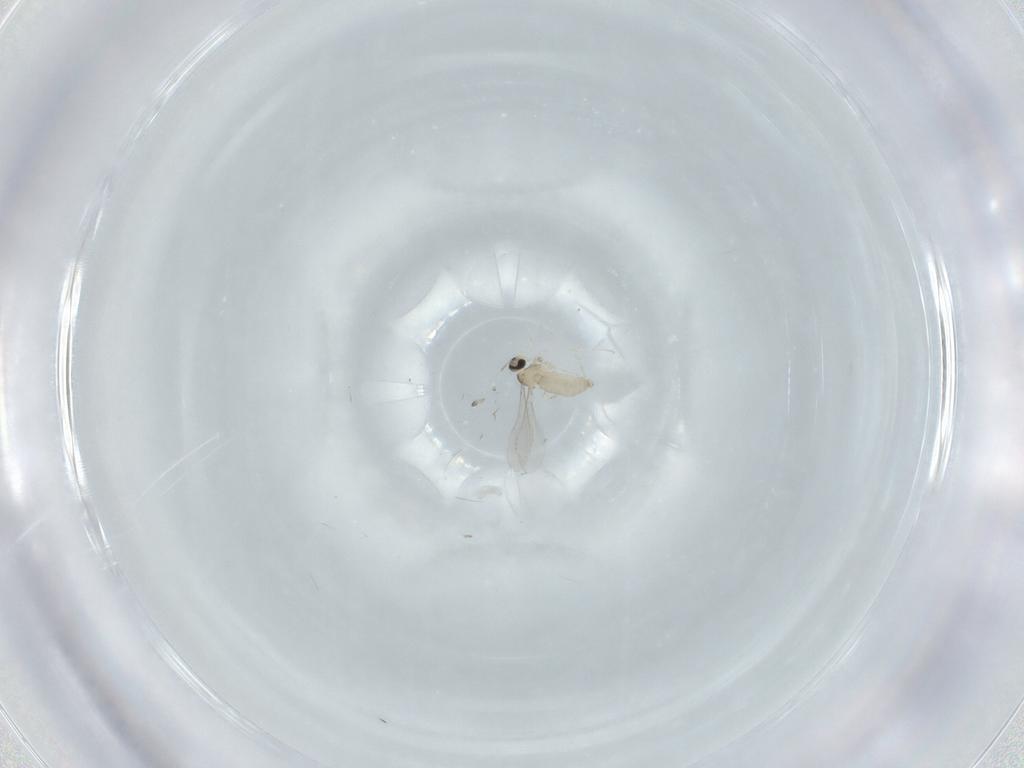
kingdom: Animalia
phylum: Arthropoda
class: Insecta
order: Diptera
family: Cecidomyiidae
